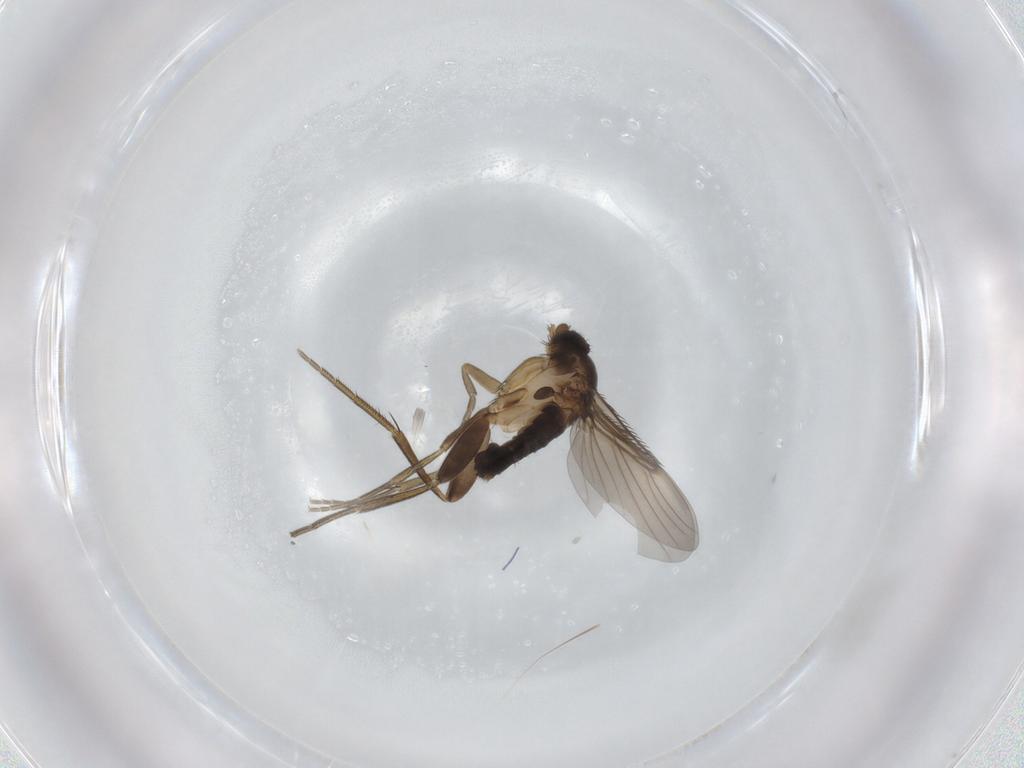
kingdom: Animalia
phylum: Arthropoda
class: Insecta
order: Diptera
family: Phoridae
